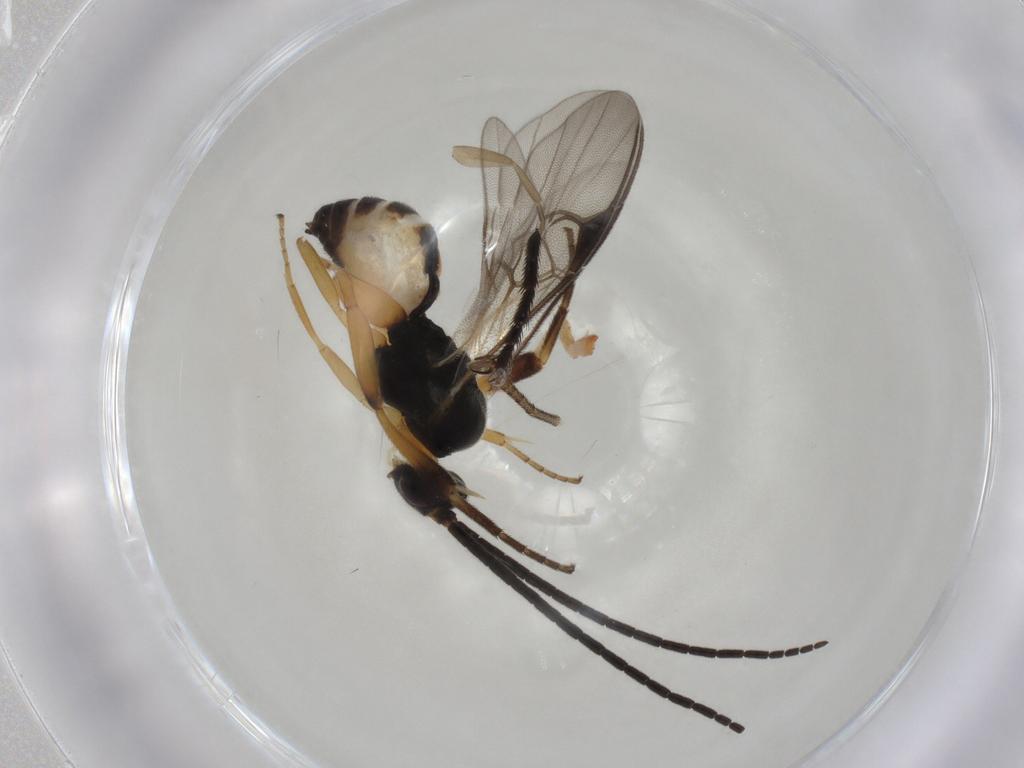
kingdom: Animalia
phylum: Arthropoda
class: Insecta
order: Hymenoptera
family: Braconidae
